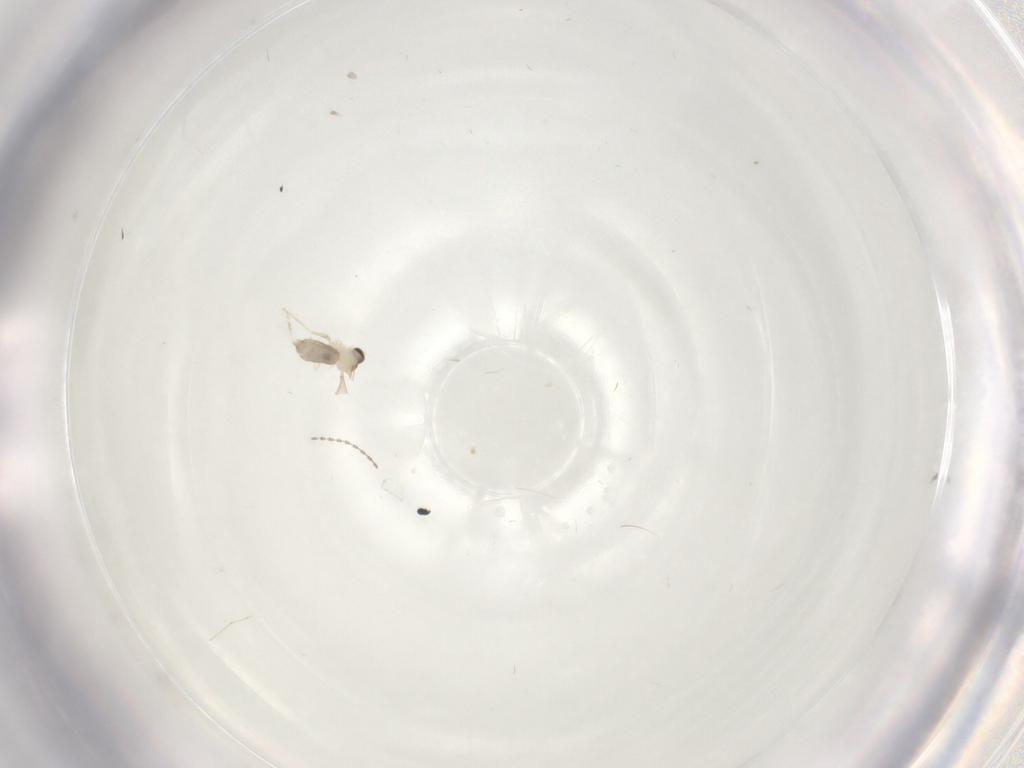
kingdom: Animalia
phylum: Arthropoda
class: Insecta
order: Diptera
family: Cecidomyiidae
